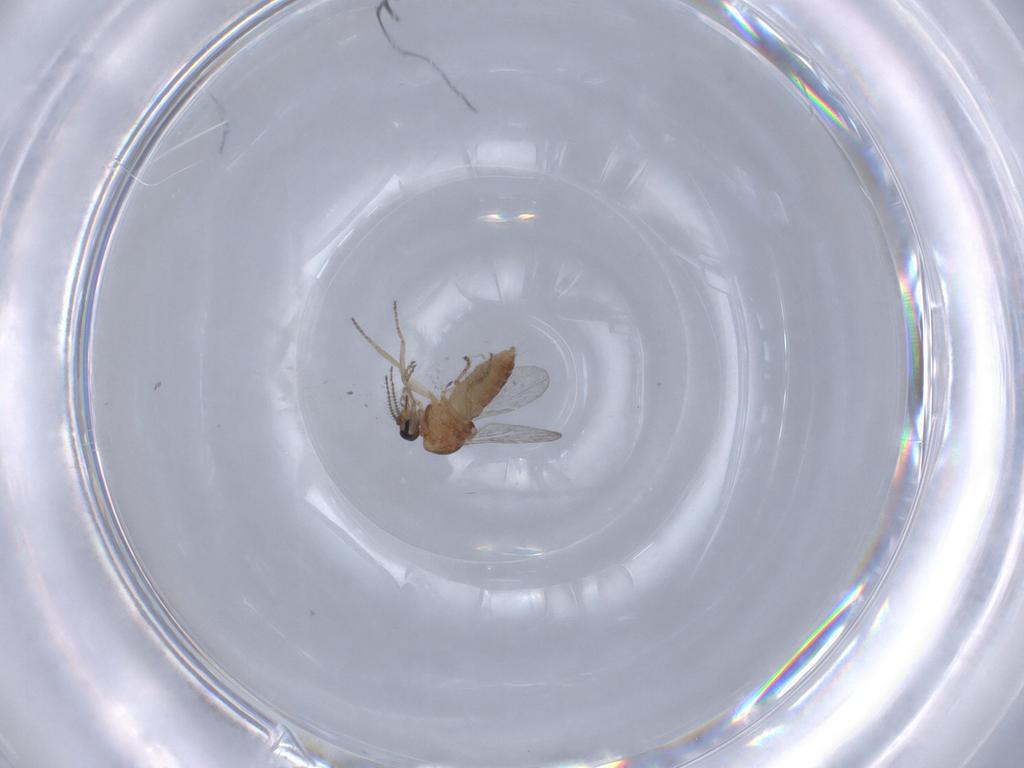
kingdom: Animalia
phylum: Arthropoda
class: Insecta
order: Diptera
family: Ceratopogonidae
